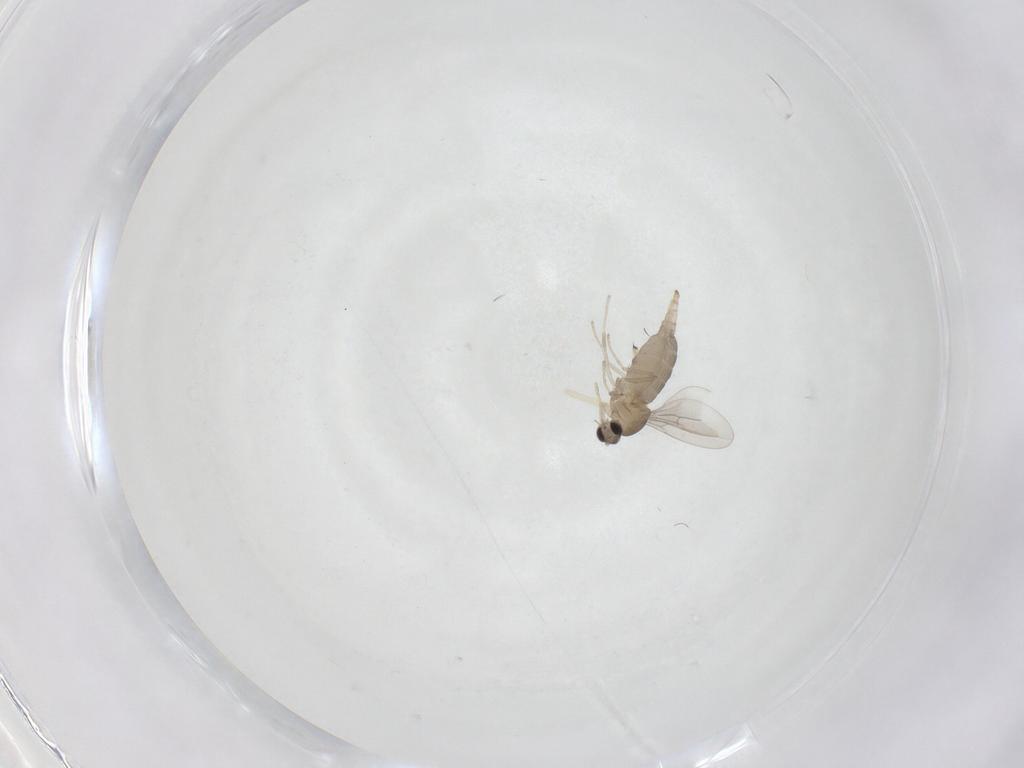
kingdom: Animalia
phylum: Arthropoda
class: Insecta
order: Diptera
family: Cecidomyiidae
